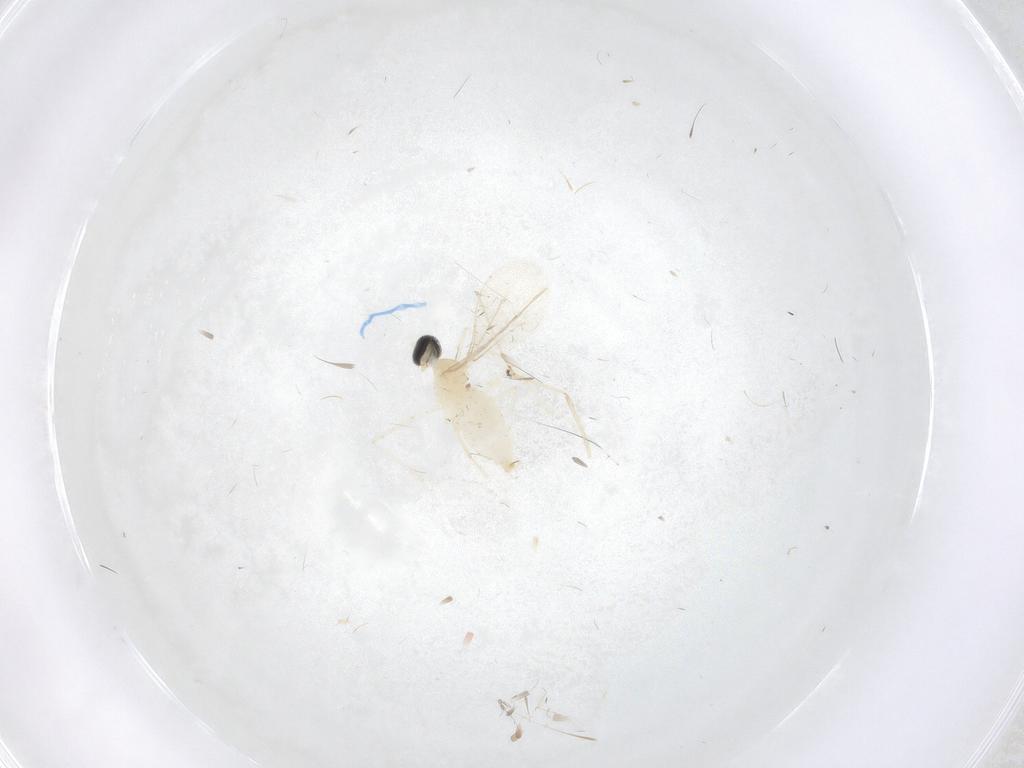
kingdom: Animalia
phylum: Arthropoda
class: Insecta
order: Diptera
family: Cecidomyiidae
